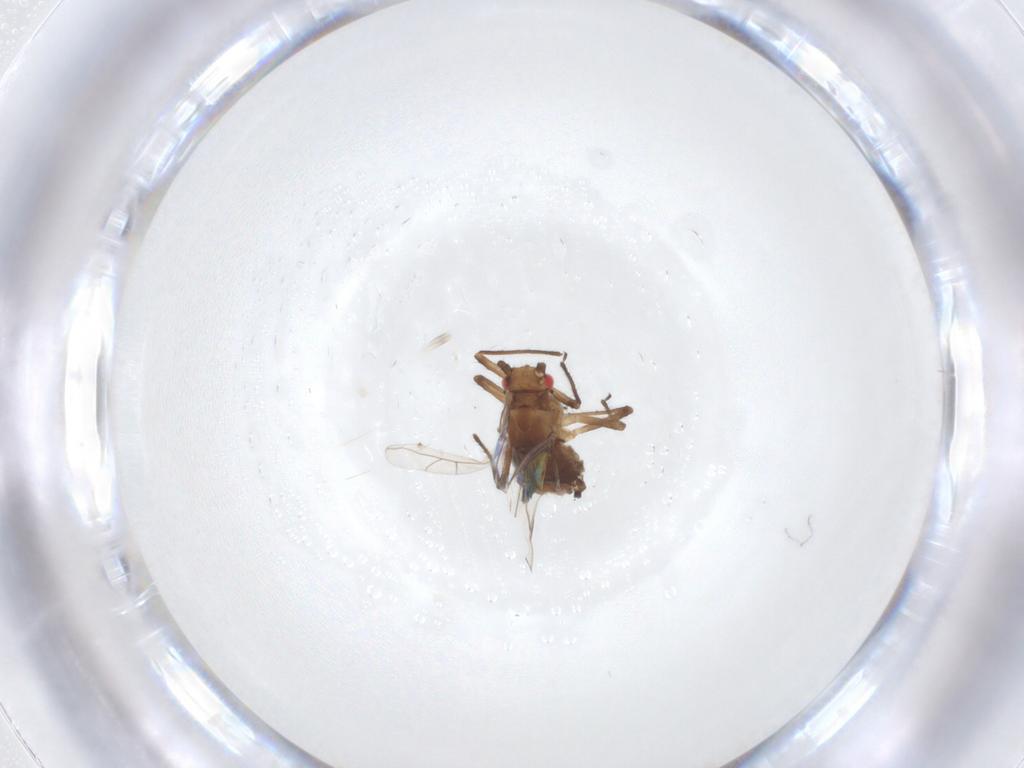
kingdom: Animalia
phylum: Arthropoda
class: Insecta
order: Hemiptera
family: Aphididae
